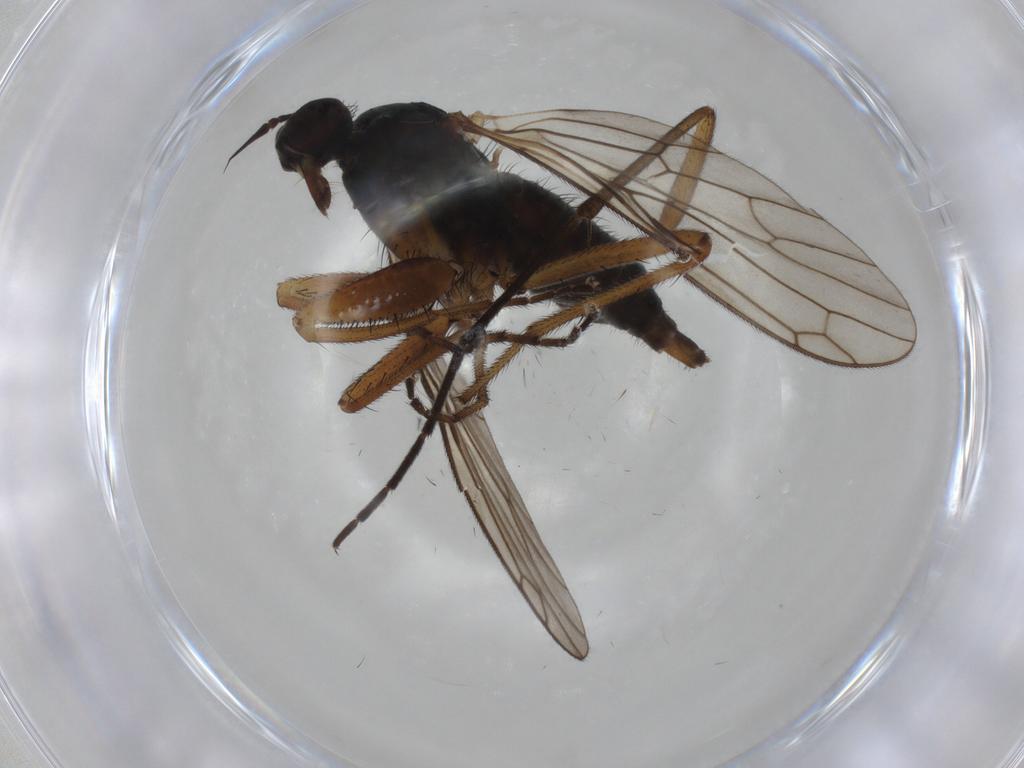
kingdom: Animalia
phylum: Arthropoda
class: Insecta
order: Diptera
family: Empididae
